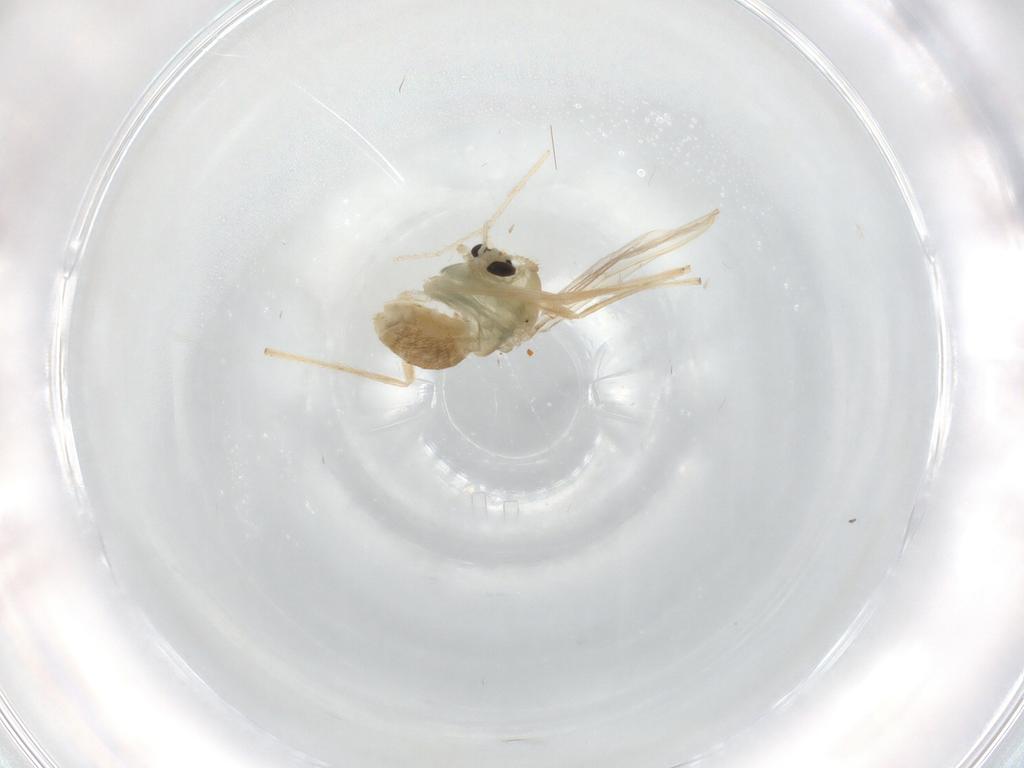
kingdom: Animalia
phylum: Arthropoda
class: Insecta
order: Diptera
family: Chironomidae
